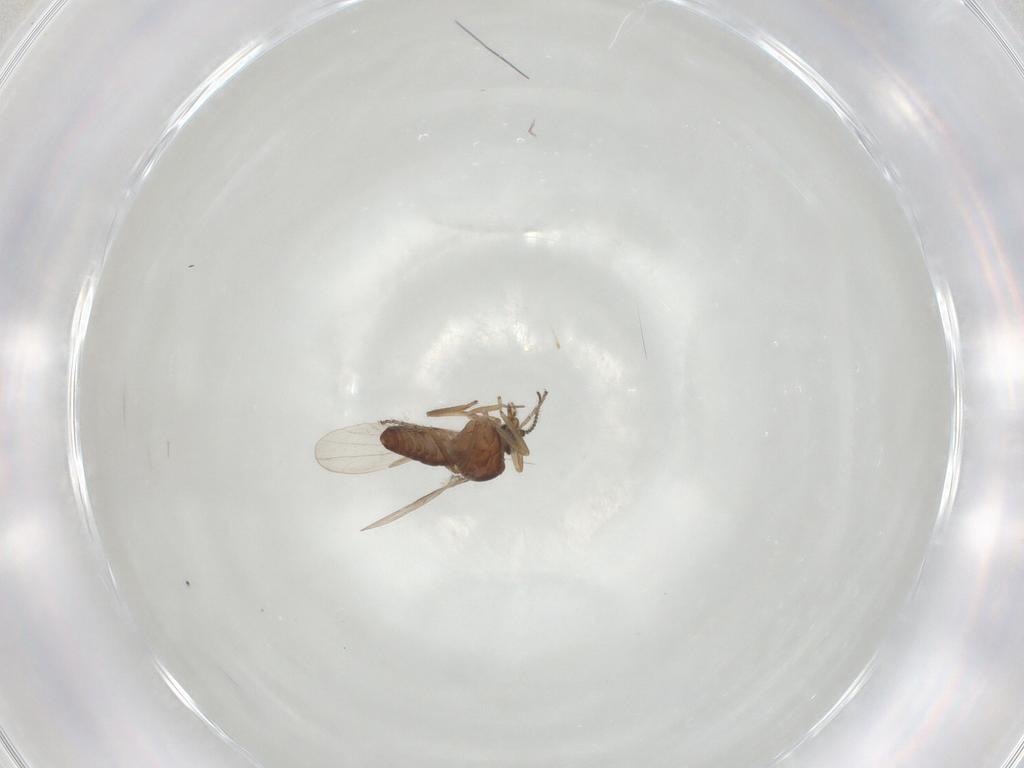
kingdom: Animalia
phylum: Arthropoda
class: Insecta
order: Diptera
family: Ceratopogonidae
